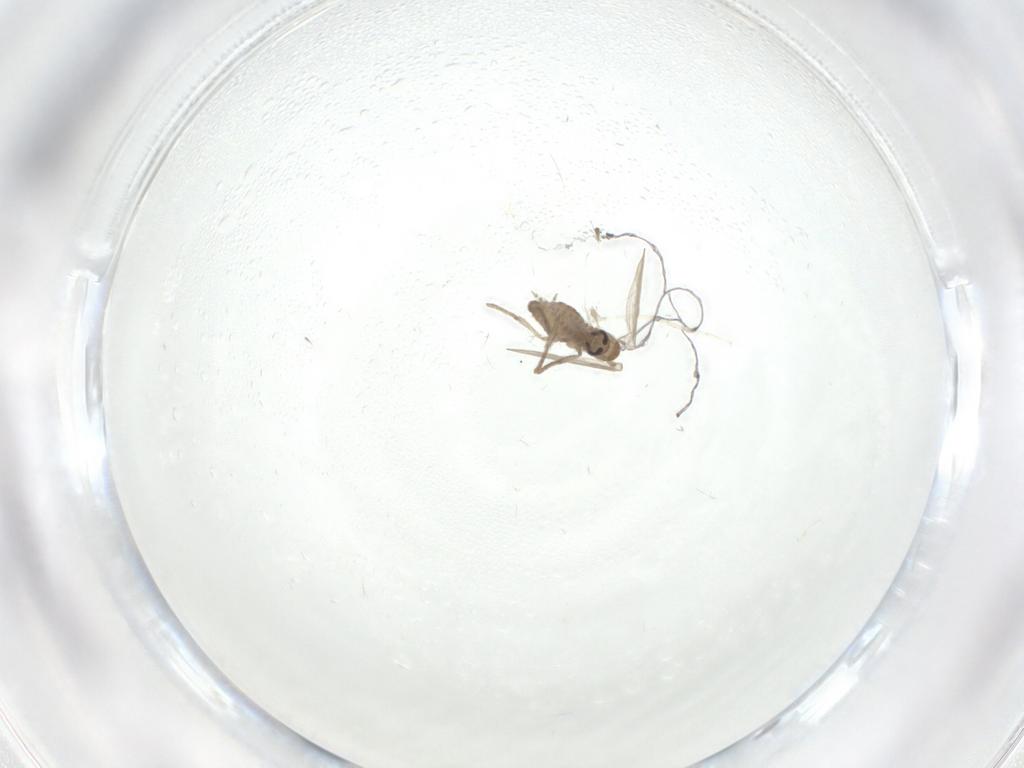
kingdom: Animalia
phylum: Arthropoda
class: Insecta
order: Diptera
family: Psychodidae
